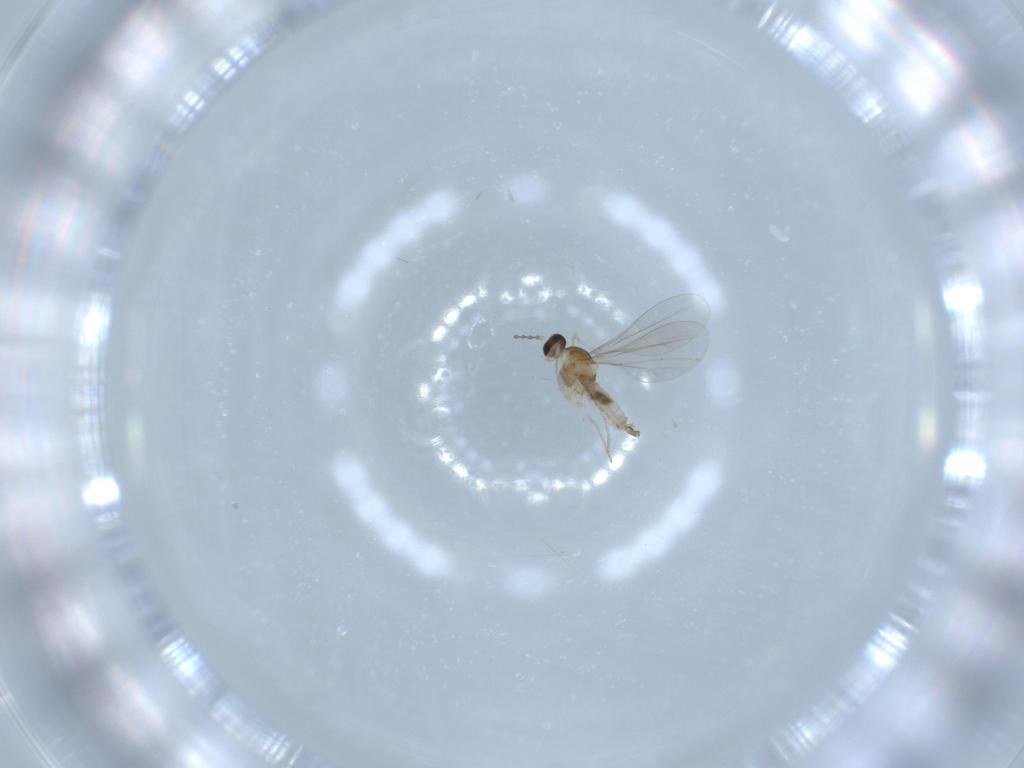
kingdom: Animalia
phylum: Arthropoda
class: Insecta
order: Diptera
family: Cecidomyiidae
